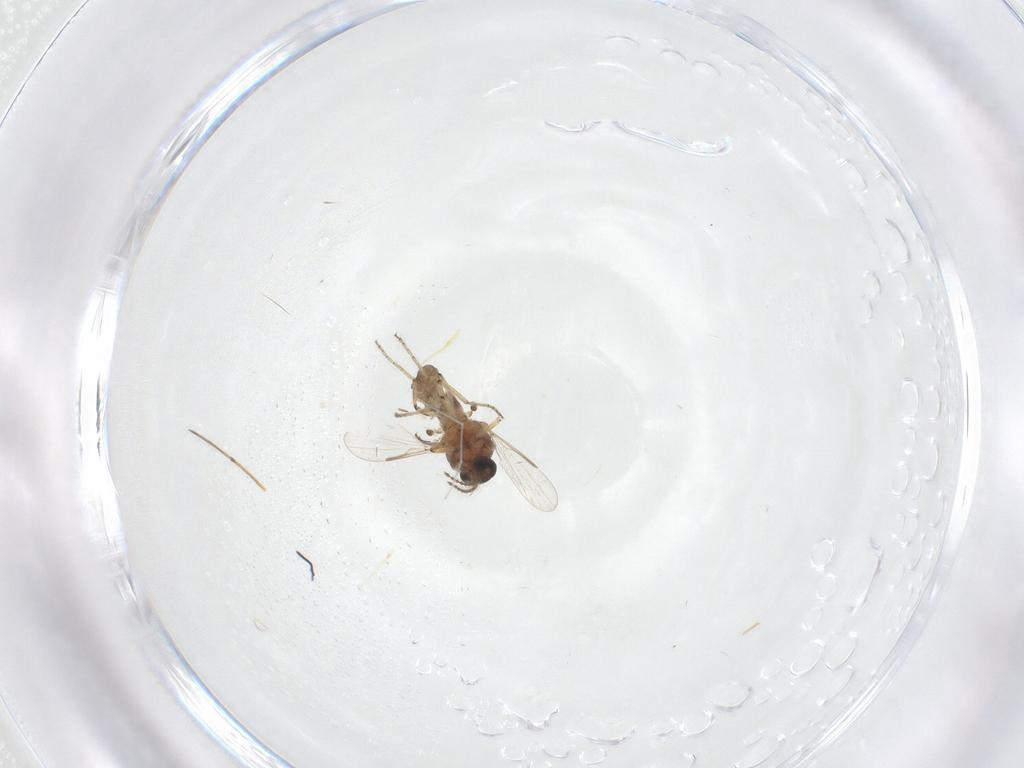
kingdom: Animalia
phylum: Arthropoda
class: Insecta
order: Diptera
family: Ceratopogonidae
